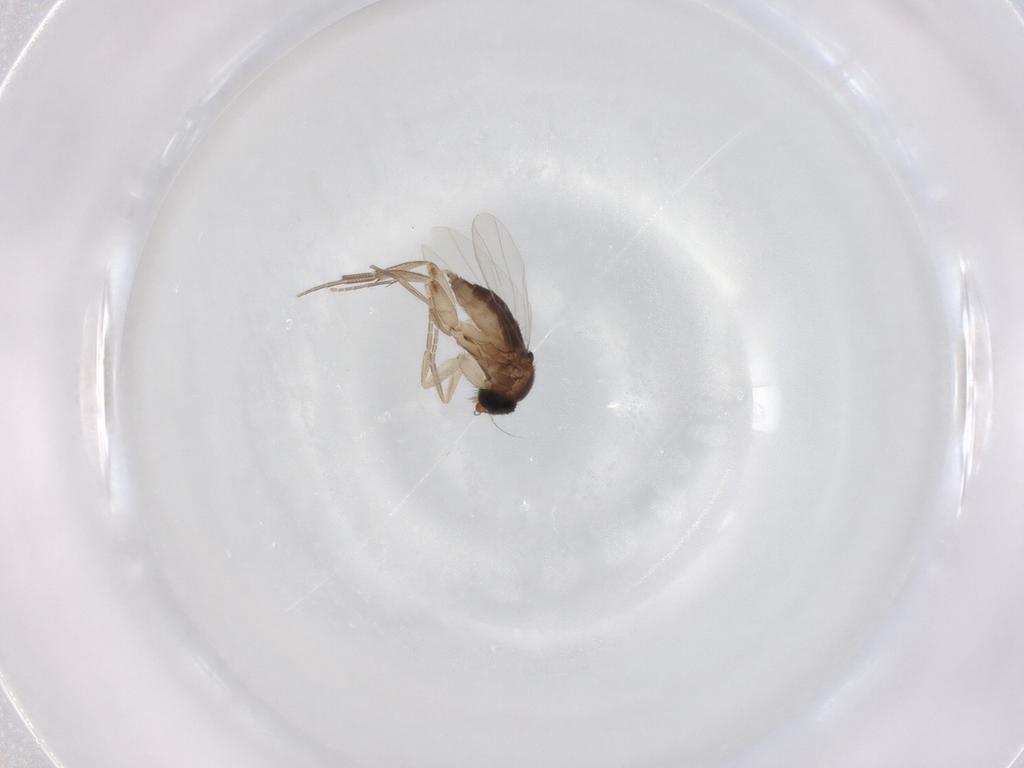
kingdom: Animalia
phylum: Arthropoda
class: Insecta
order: Diptera
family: Phoridae
